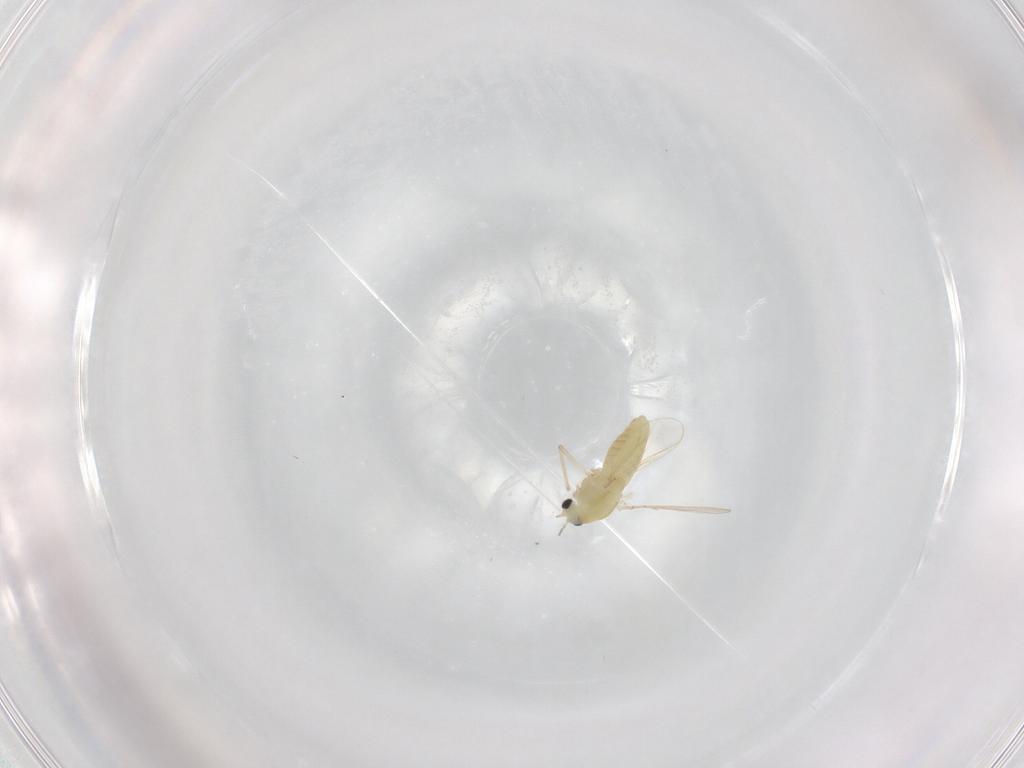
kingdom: Animalia
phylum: Arthropoda
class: Insecta
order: Diptera
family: Chironomidae
